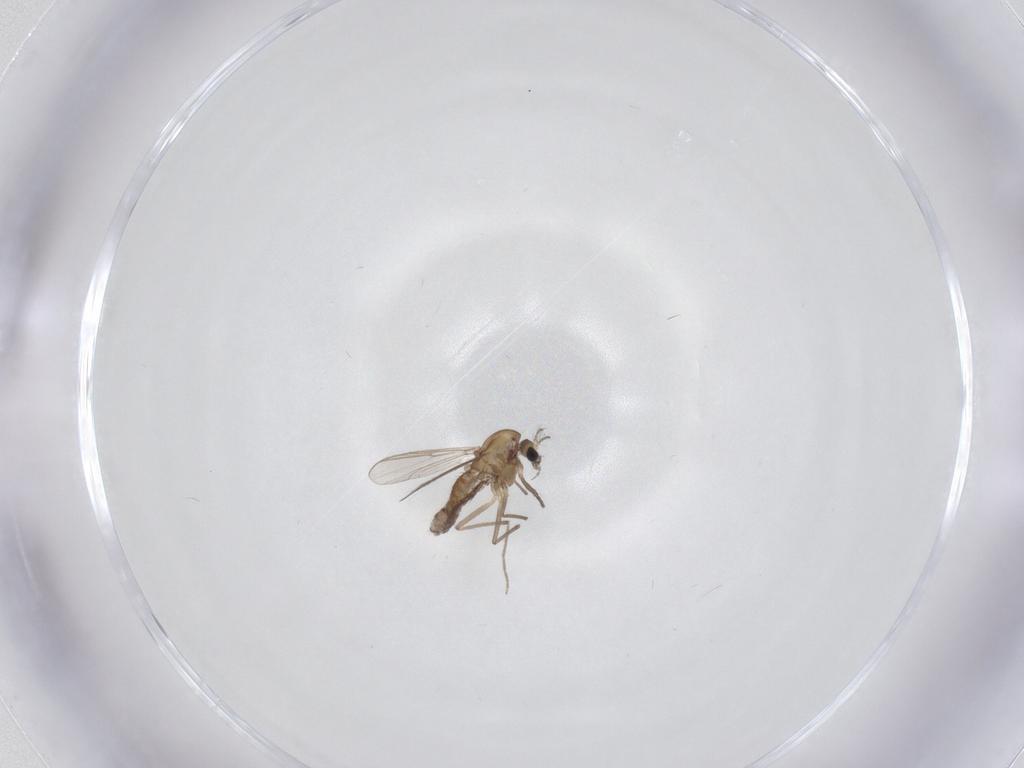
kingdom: Animalia
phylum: Arthropoda
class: Insecta
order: Diptera
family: Chironomidae
